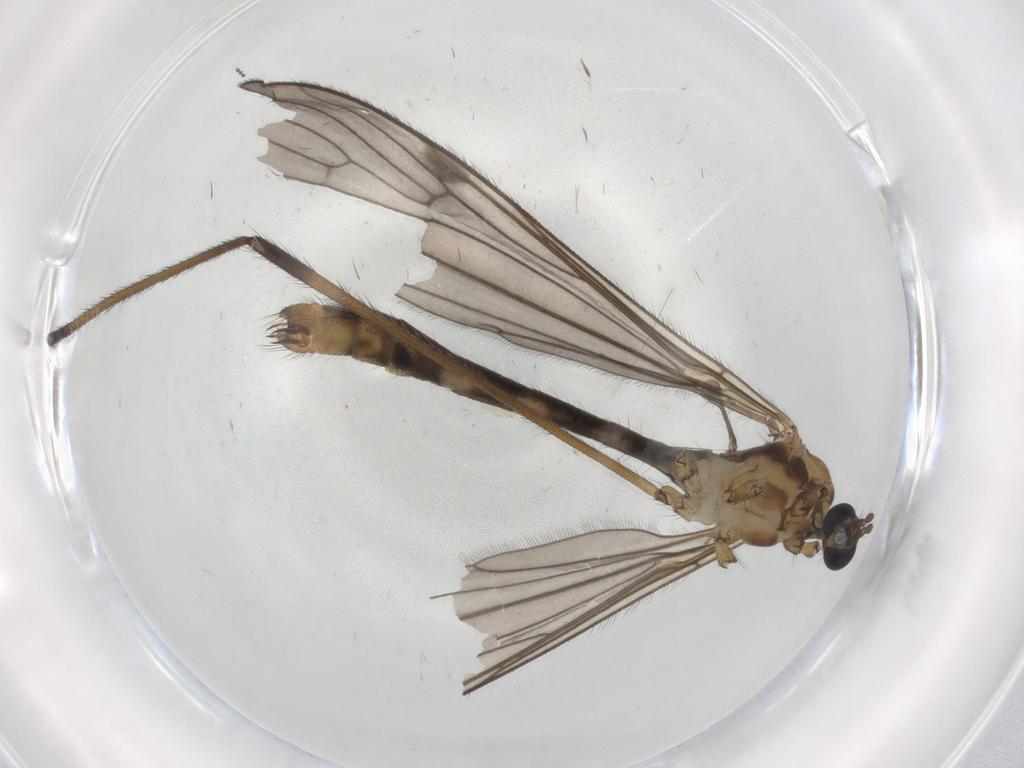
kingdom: Animalia
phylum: Arthropoda
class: Insecta
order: Diptera
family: Limoniidae
